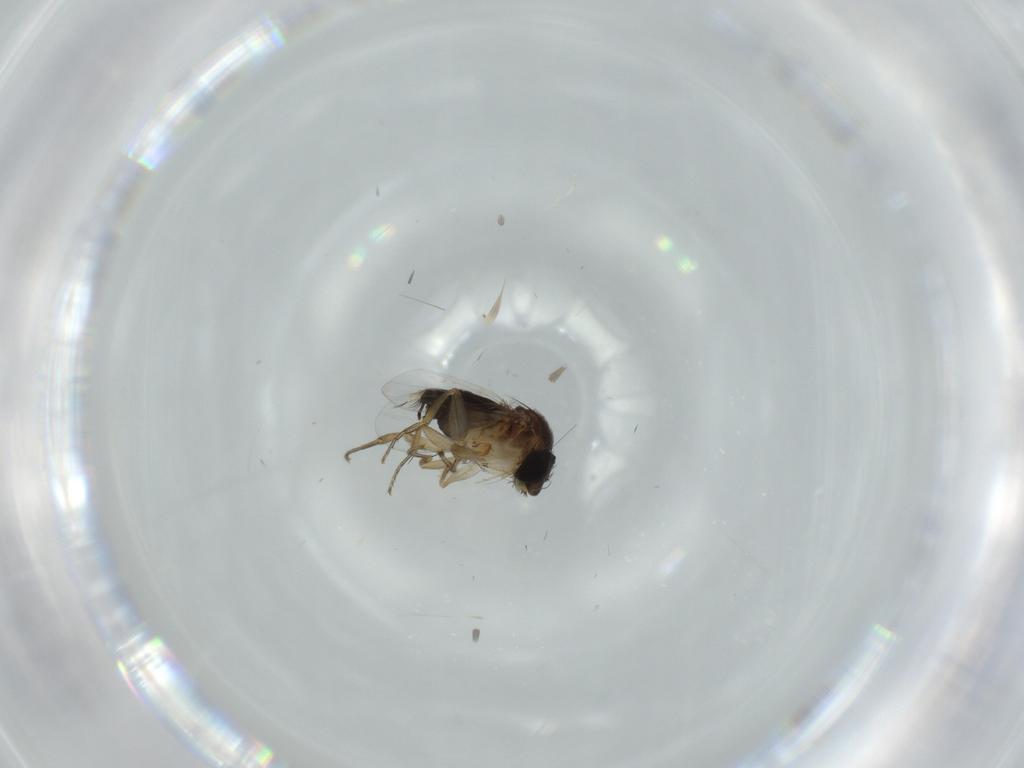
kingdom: Animalia
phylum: Arthropoda
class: Insecta
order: Diptera
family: Phoridae
